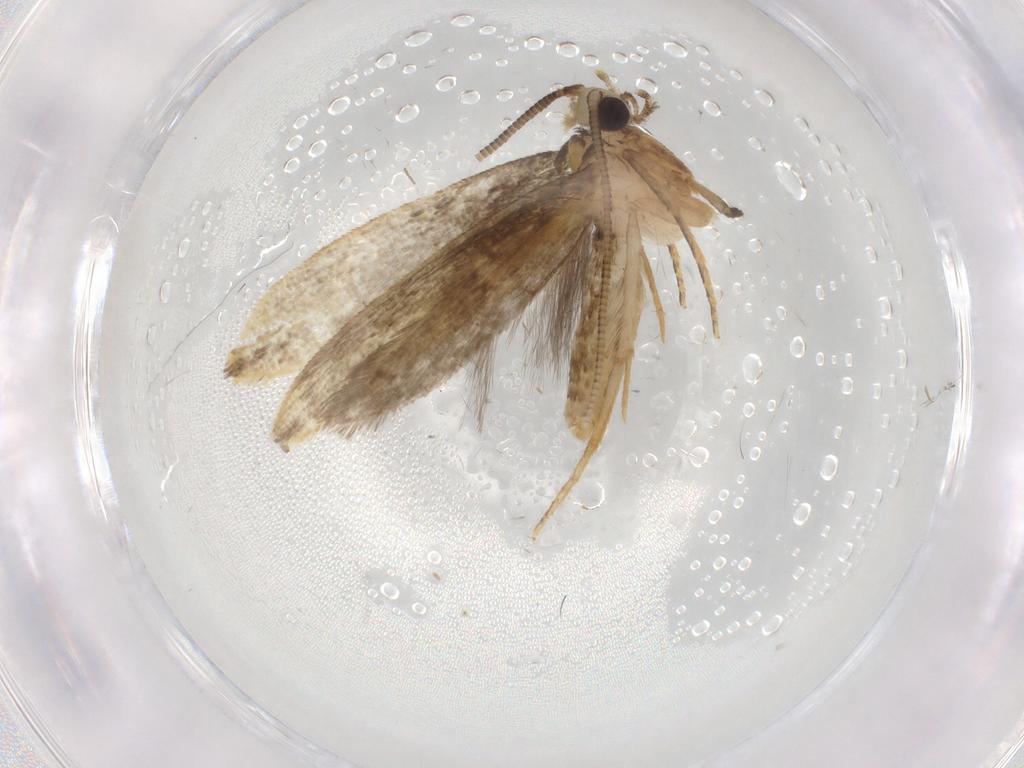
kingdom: Animalia
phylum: Arthropoda
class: Insecta
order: Lepidoptera
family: Tineidae
